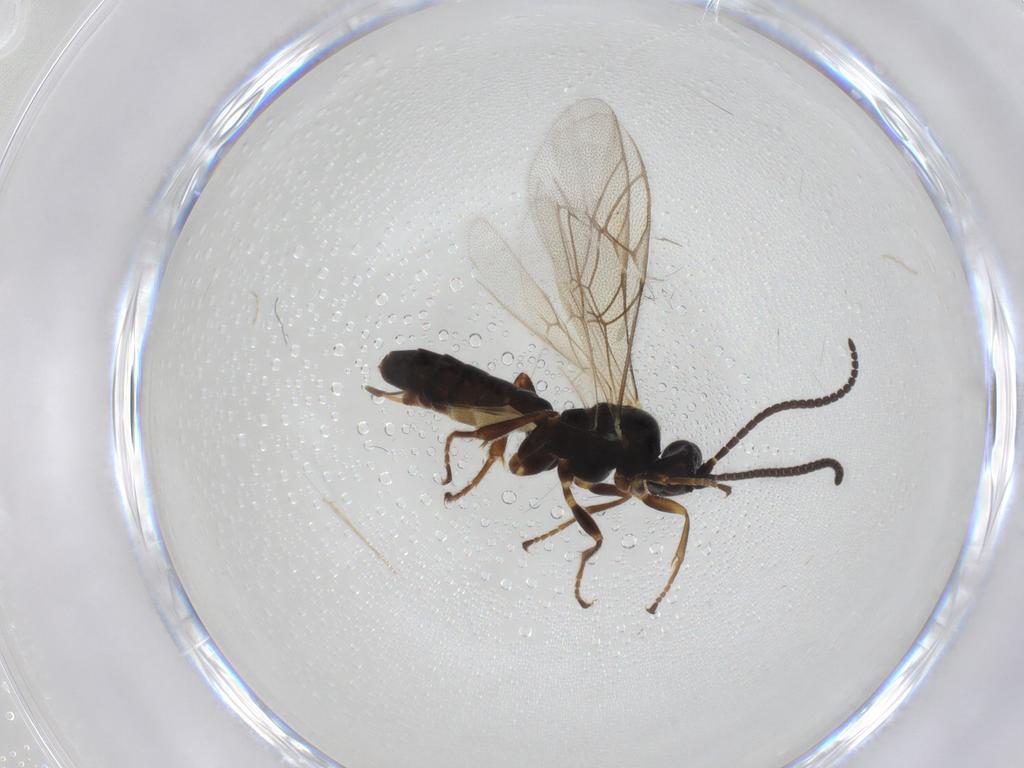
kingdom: Animalia
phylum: Arthropoda
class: Insecta
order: Hymenoptera
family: Ichneumonidae
